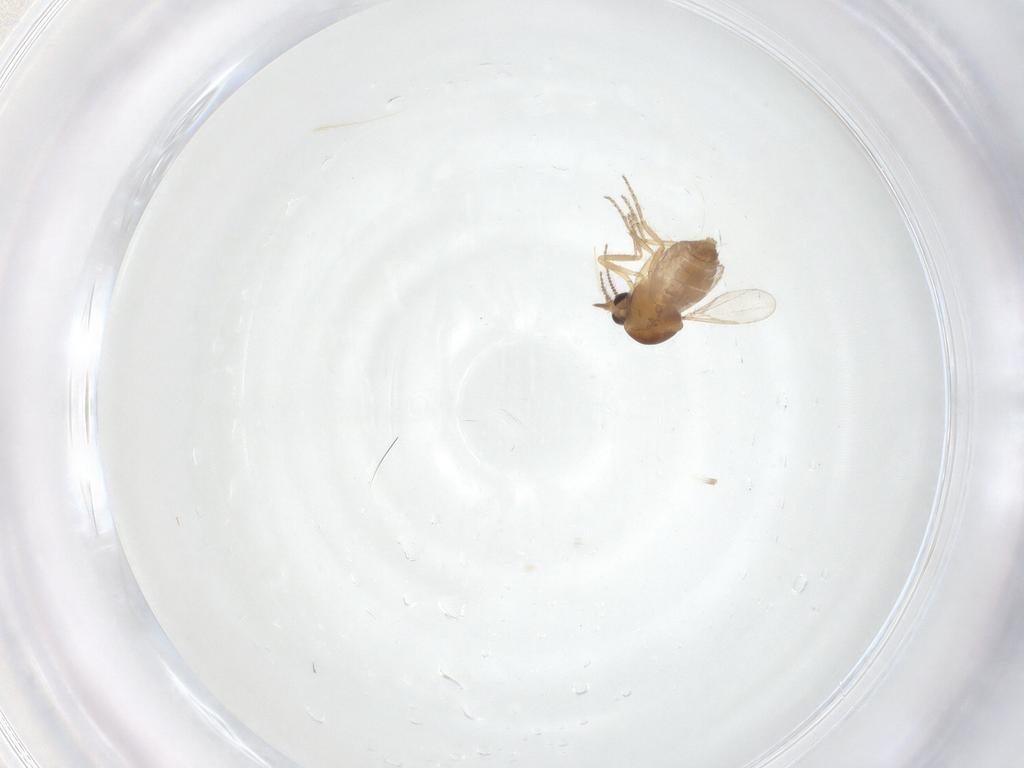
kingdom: Animalia
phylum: Arthropoda
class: Insecta
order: Diptera
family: Ceratopogonidae
